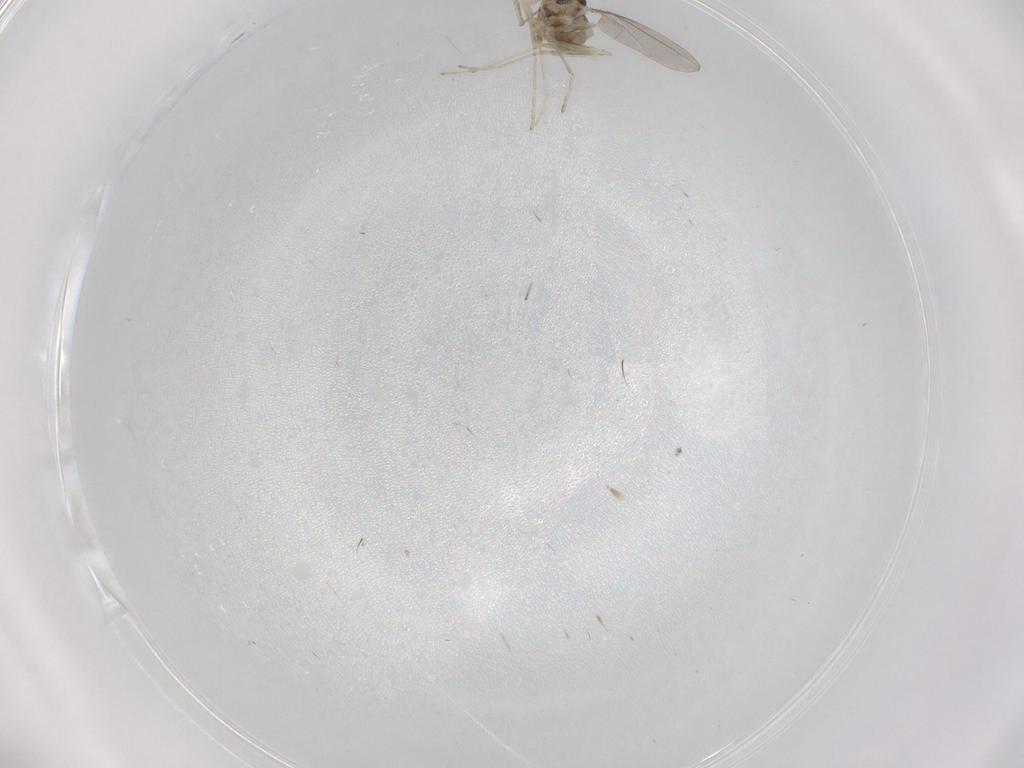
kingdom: Animalia
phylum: Arthropoda
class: Insecta
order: Diptera
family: Cecidomyiidae
